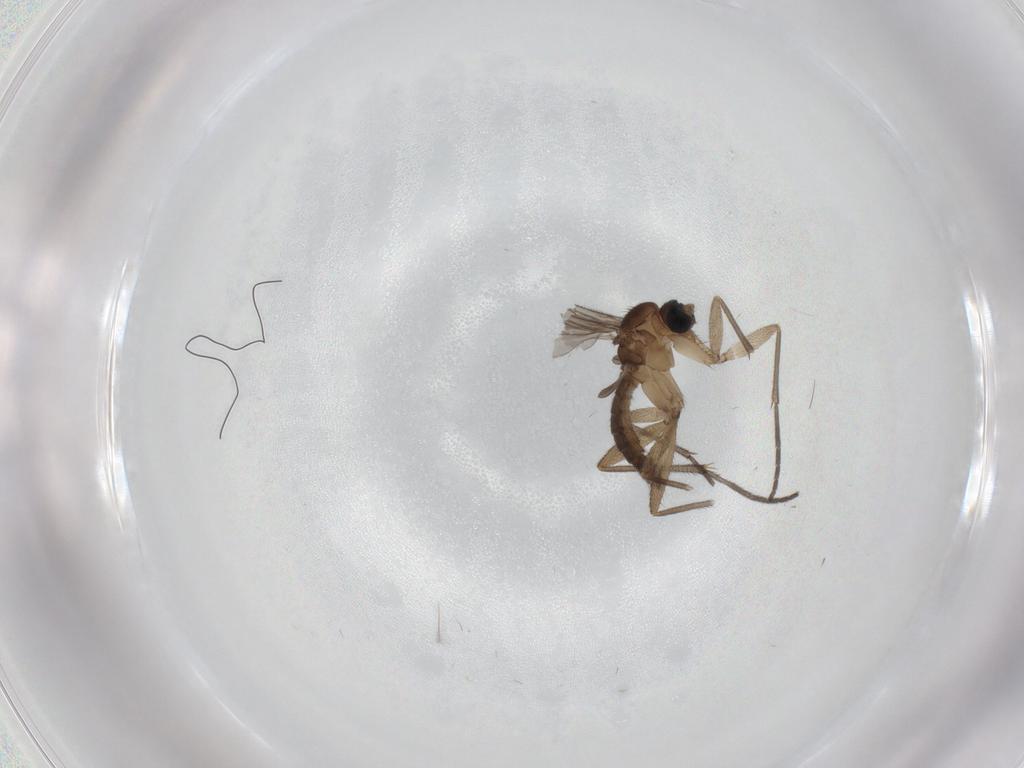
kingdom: Animalia
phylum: Arthropoda
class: Insecta
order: Diptera
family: Sciaridae
